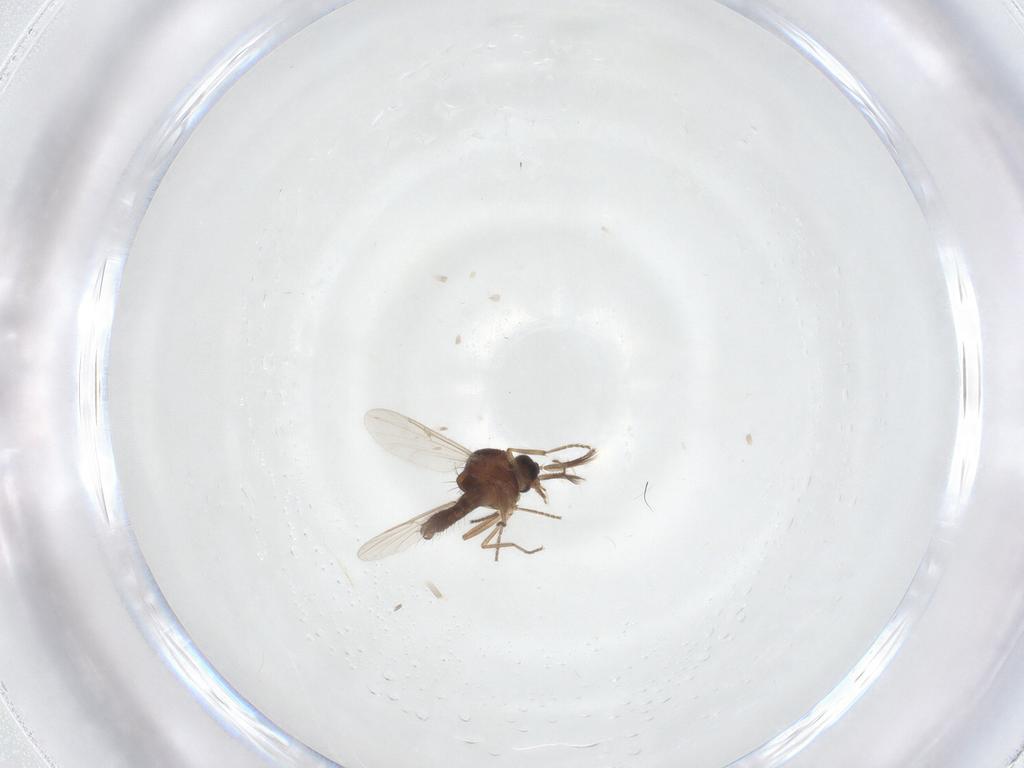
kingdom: Animalia
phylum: Arthropoda
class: Insecta
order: Diptera
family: Ceratopogonidae
